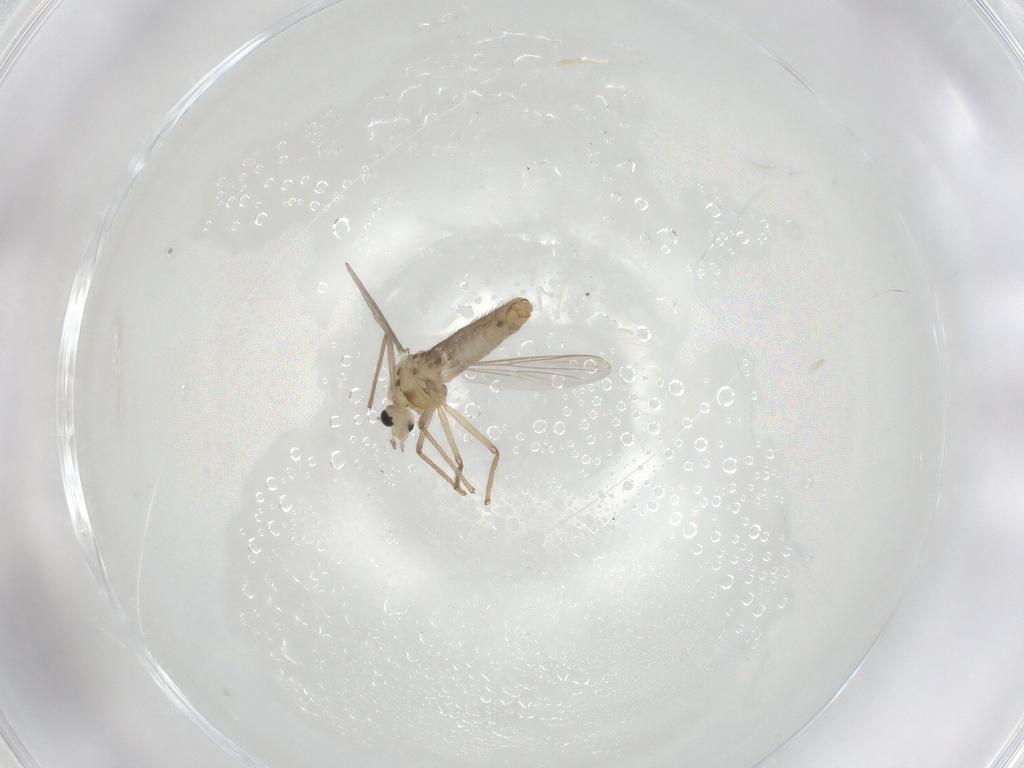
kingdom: Animalia
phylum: Arthropoda
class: Insecta
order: Diptera
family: Chironomidae
